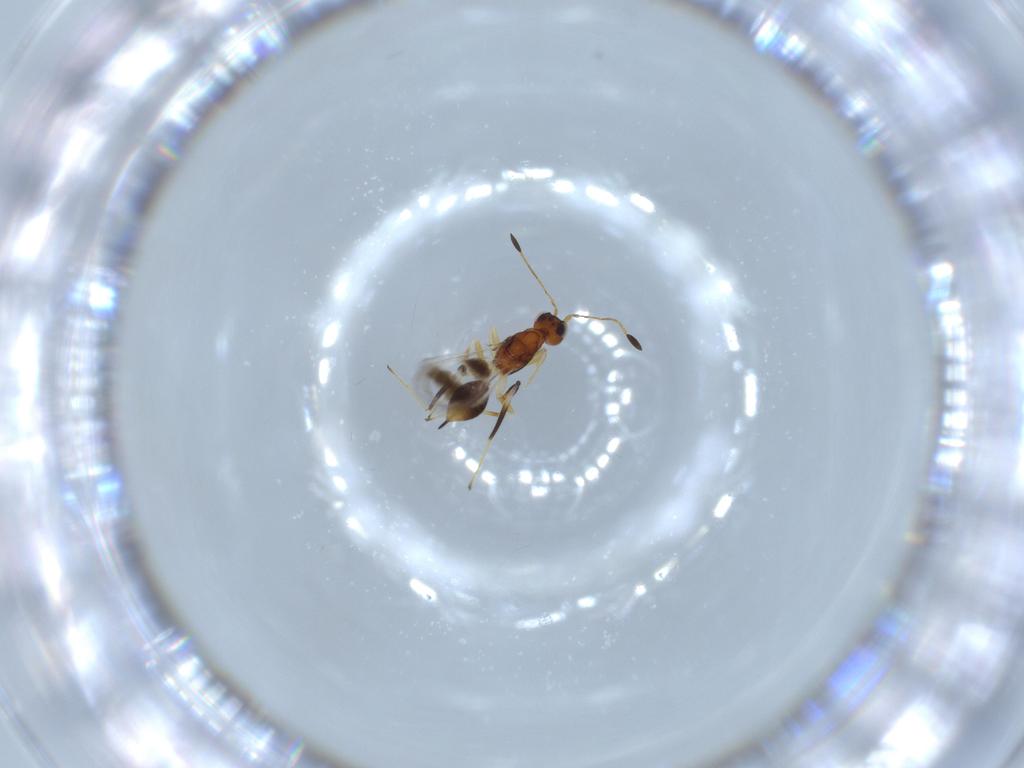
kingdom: Animalia
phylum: Arthropoda
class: Insecta
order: Hymenoptera
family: Mymaridae
